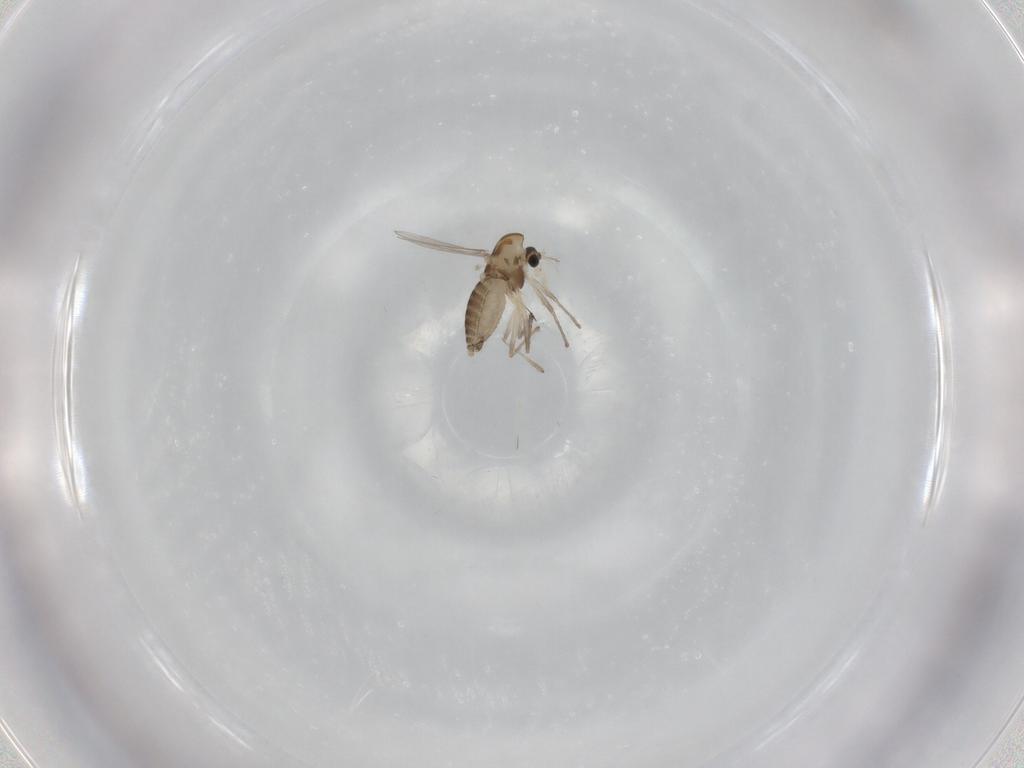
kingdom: Animalia
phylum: Arthropoda
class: Insecta
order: Diptera
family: Chironomidae
